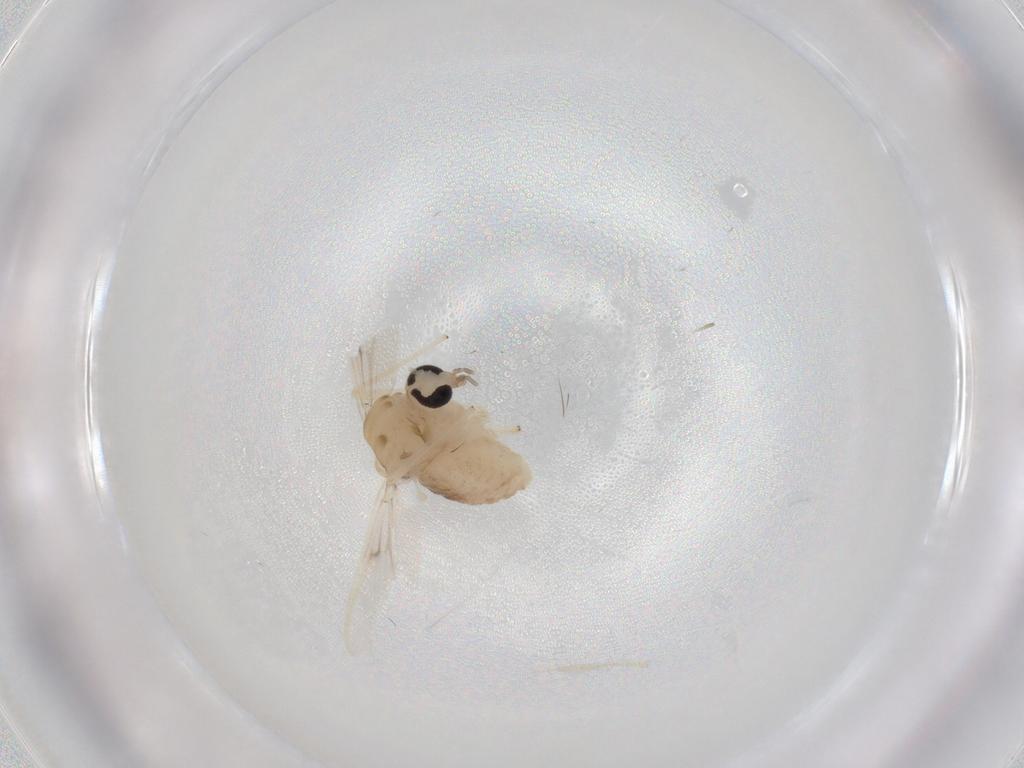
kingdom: Animalia
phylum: Arthropoda
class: Insecta
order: Diptera
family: Chironomidae
